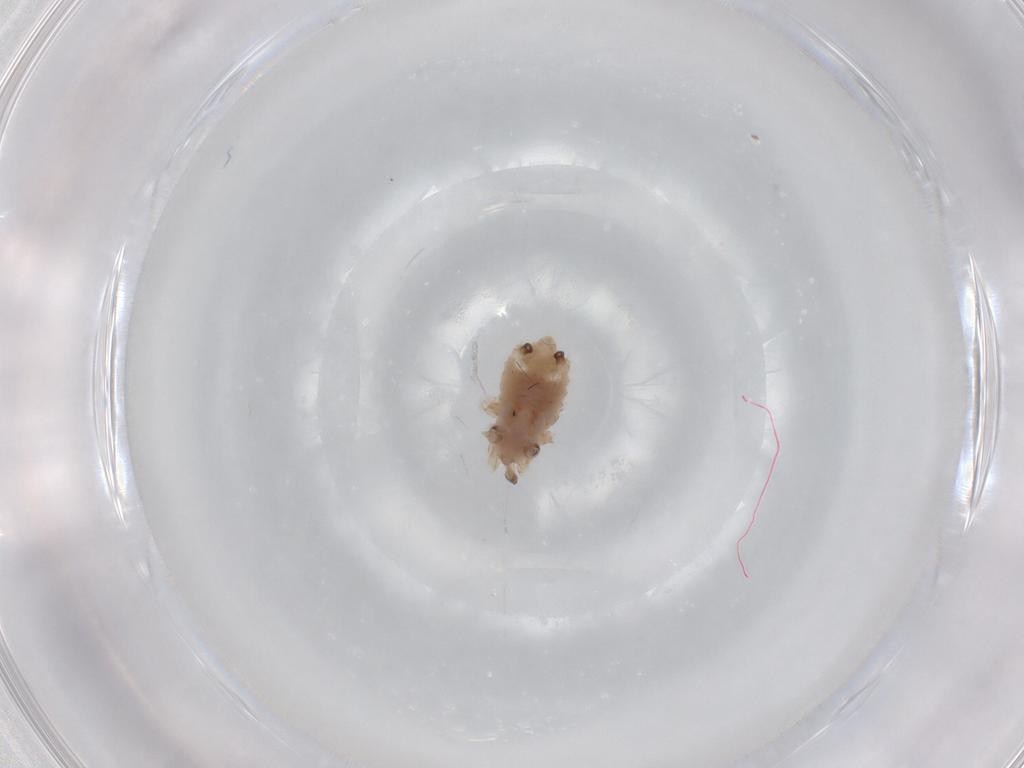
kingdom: Animalia
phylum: Arthropoda
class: Insecta
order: Hemiptera
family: Aphididae
